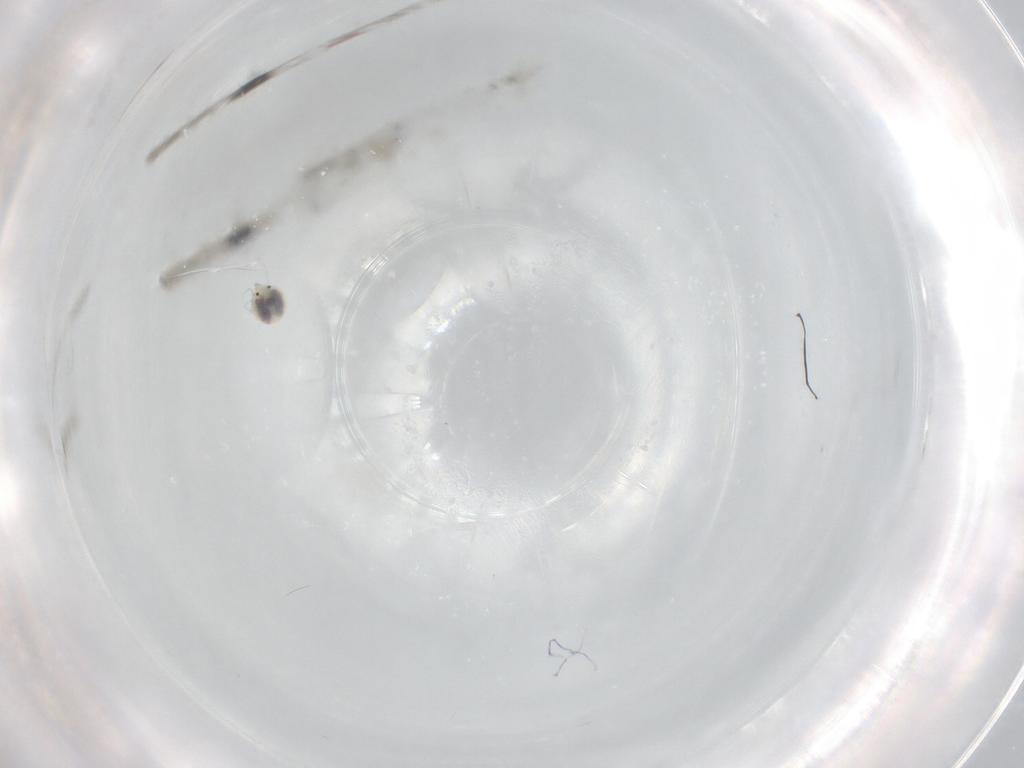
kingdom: Animalia
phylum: Arthropoda
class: Arachnida
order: Trombidiformes
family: Unionicolidae
